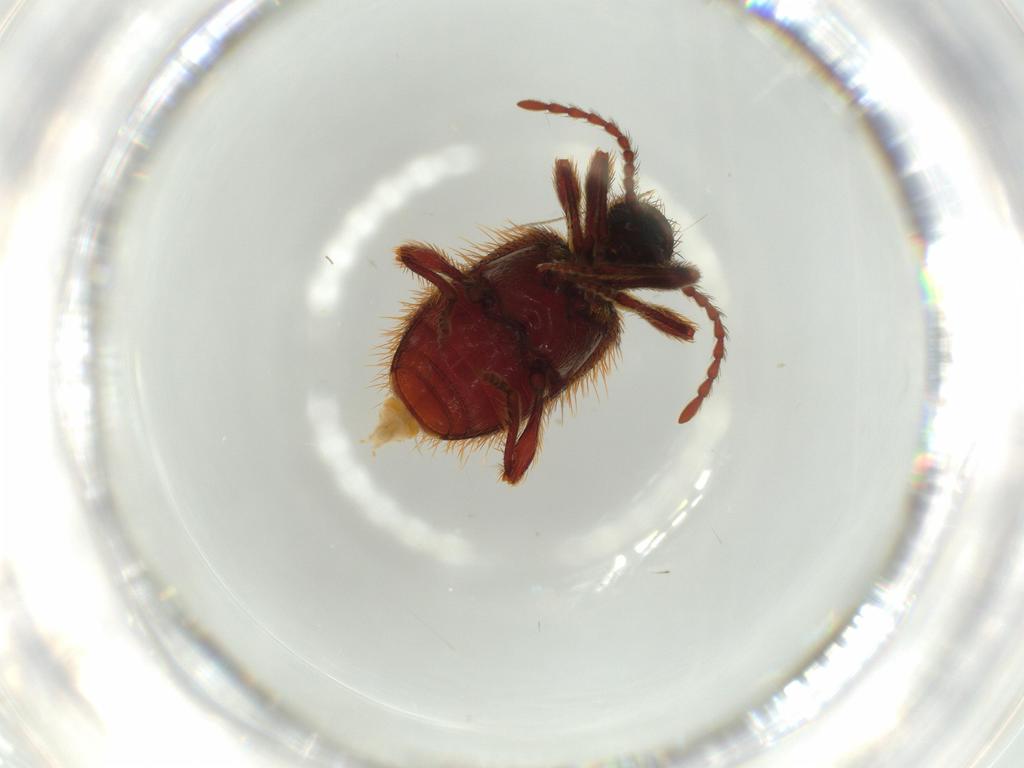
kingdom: Animalia
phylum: Arthropoda
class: Insecta
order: Coleoptera
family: Ptinidae
